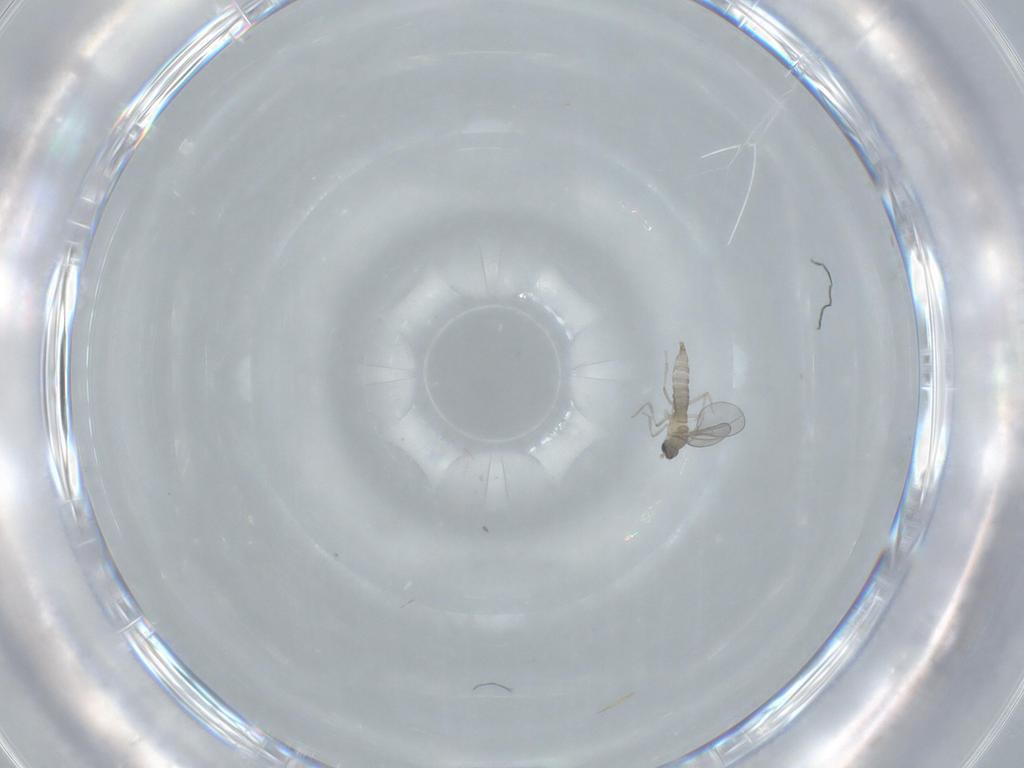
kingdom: Animalia
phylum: Arthropoda
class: Insecta
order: Diptera
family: Cecidomyiidae
